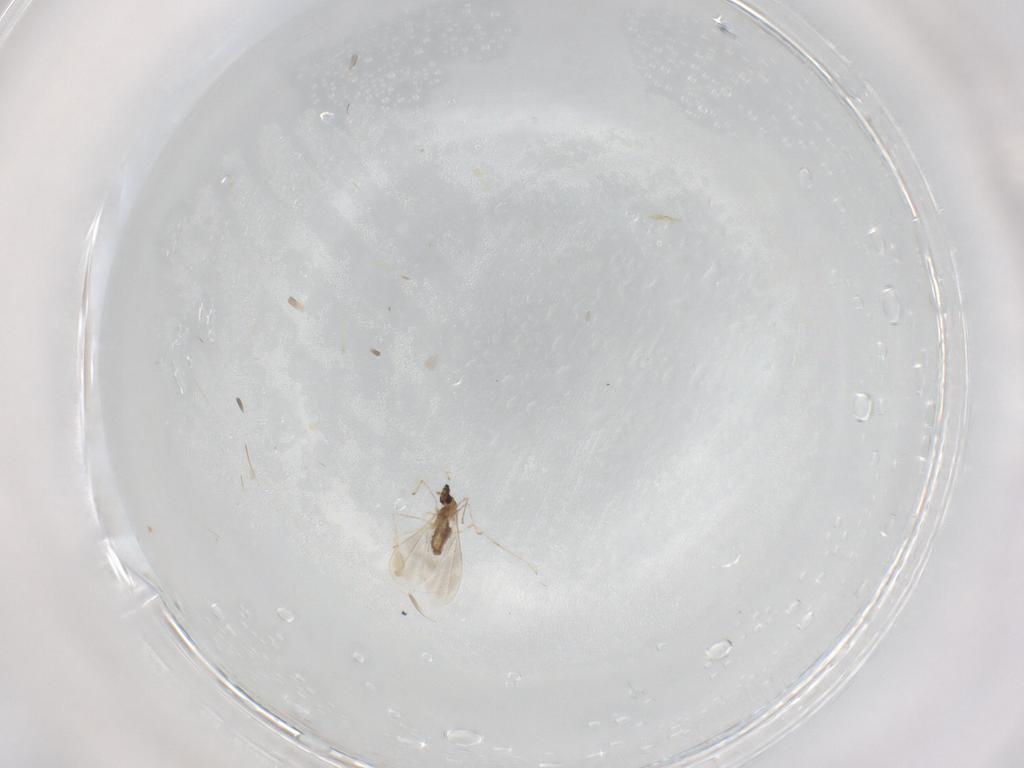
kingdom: Animalia
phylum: Arthropoda
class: Insecta
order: Diptera
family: Cecidomyiidae
